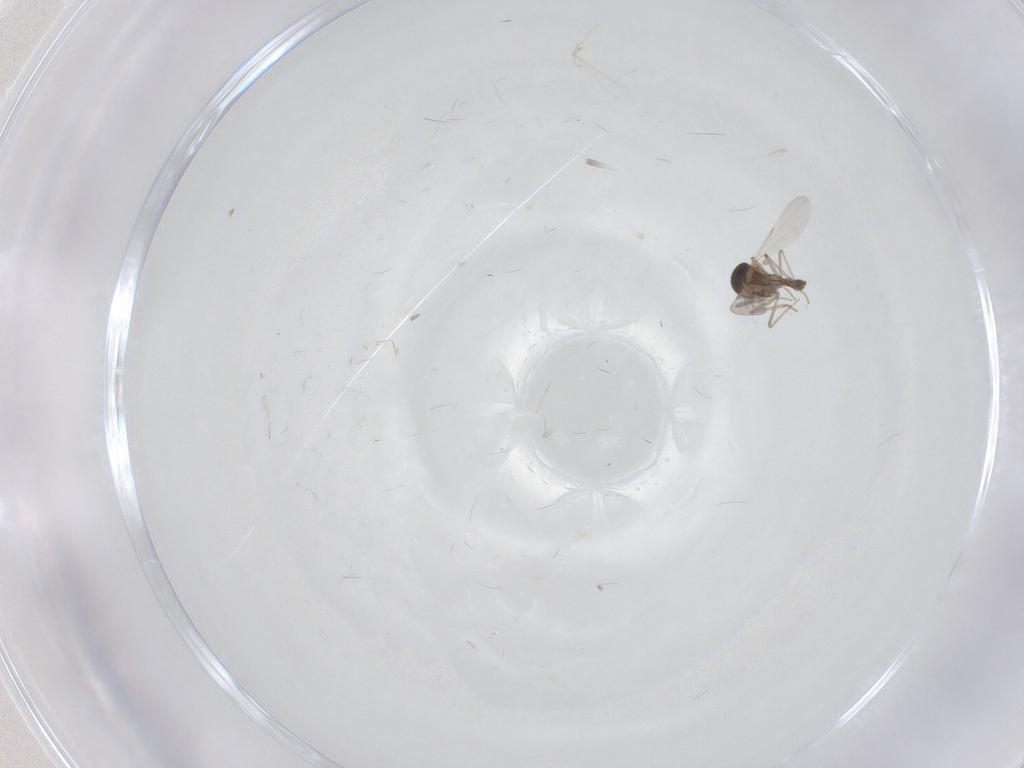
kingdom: Animalia
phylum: Arthropoda
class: Insecta
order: Diptera
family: Ceratopogonidae
